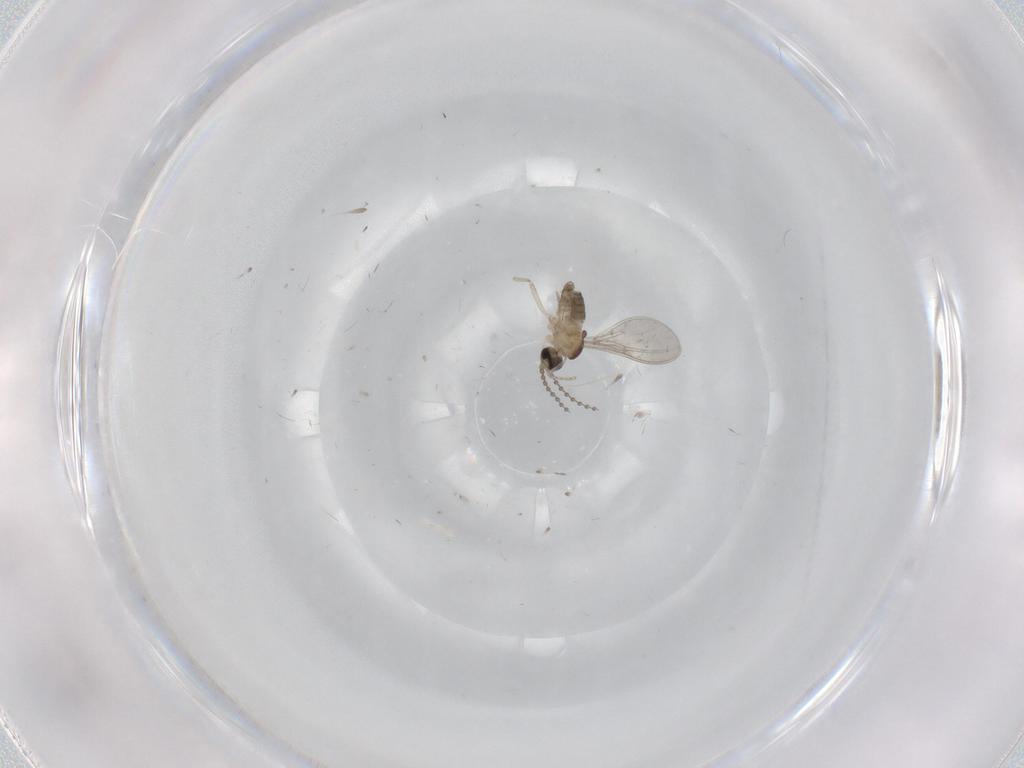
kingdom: Animalia
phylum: Arthropoda
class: Insecta
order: Diptera
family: Cecidomyiidae
